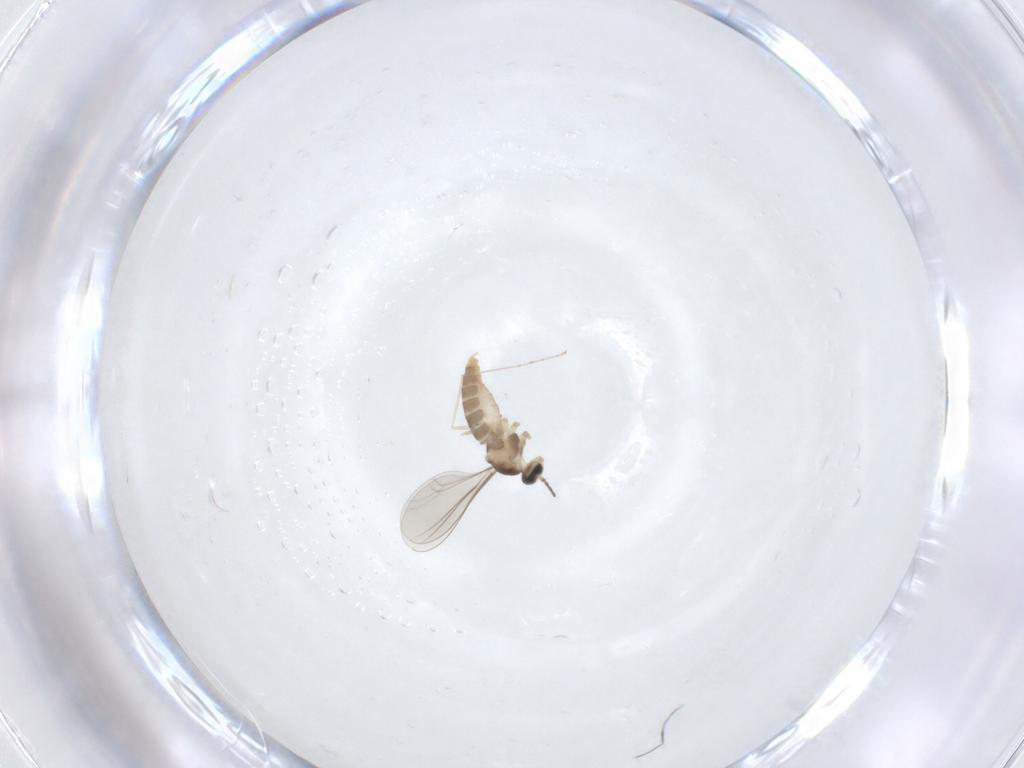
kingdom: Animalia
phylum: Arthropoda
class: Insecta
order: Diptera
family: Cecidomyiidae
